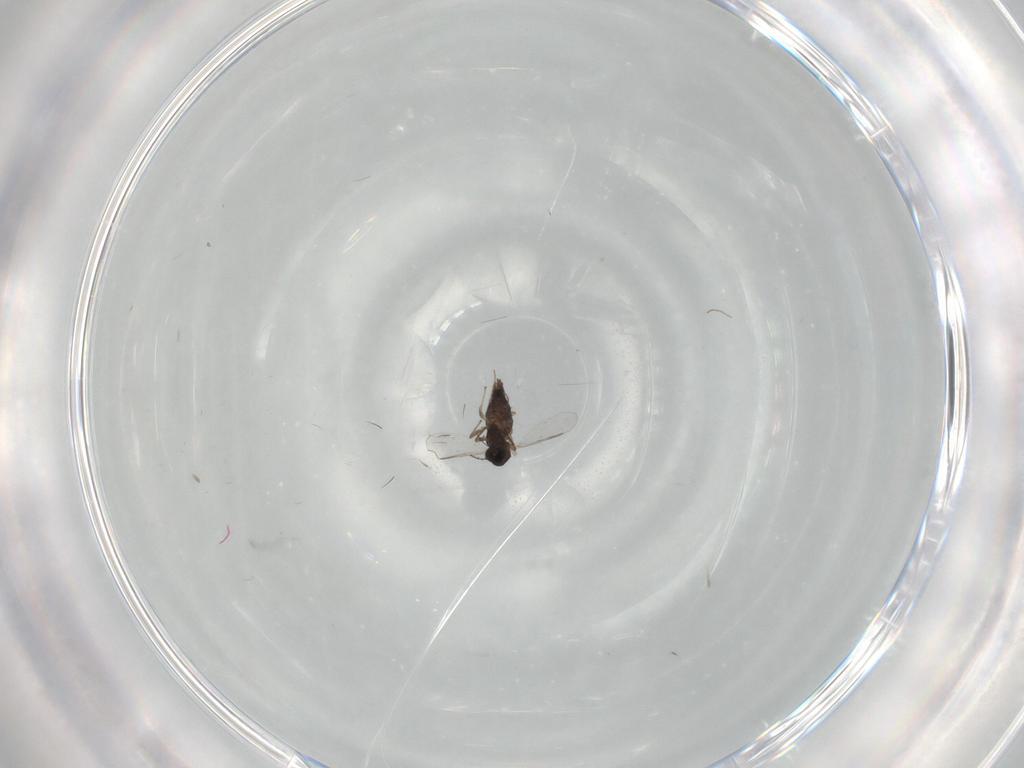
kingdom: Animalia
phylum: Arthropoda
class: Insecta
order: Diptera
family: Chironomidae
